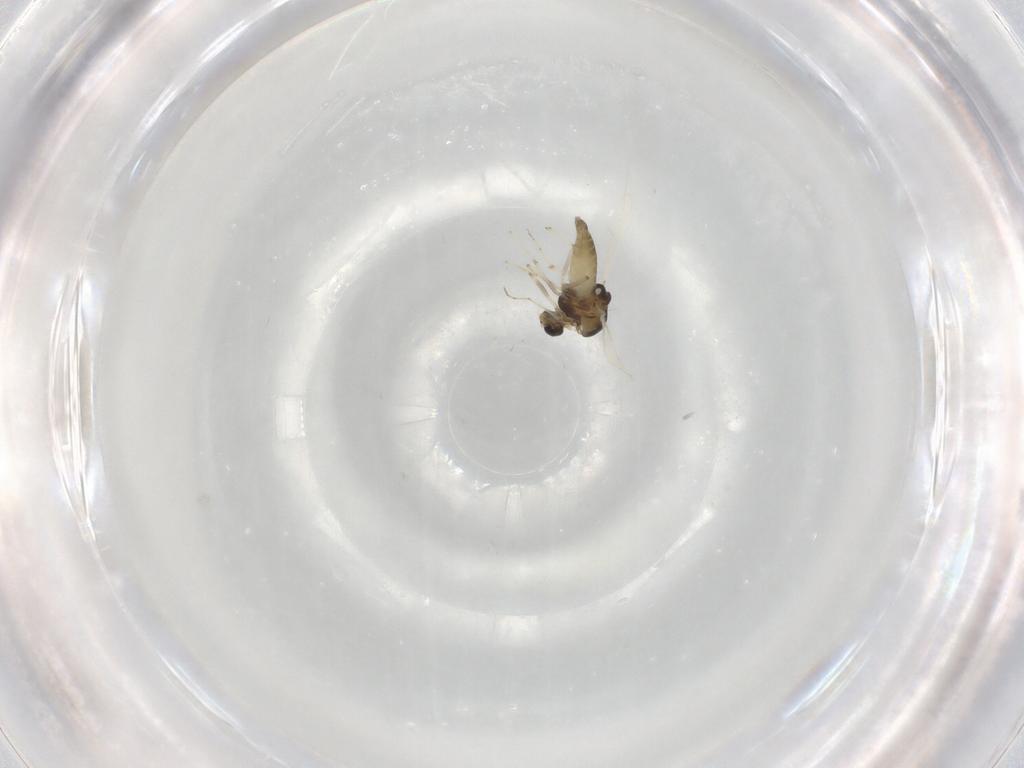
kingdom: Animalia
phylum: Arthropoda
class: Insecta
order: Diptera
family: Chironomidae
